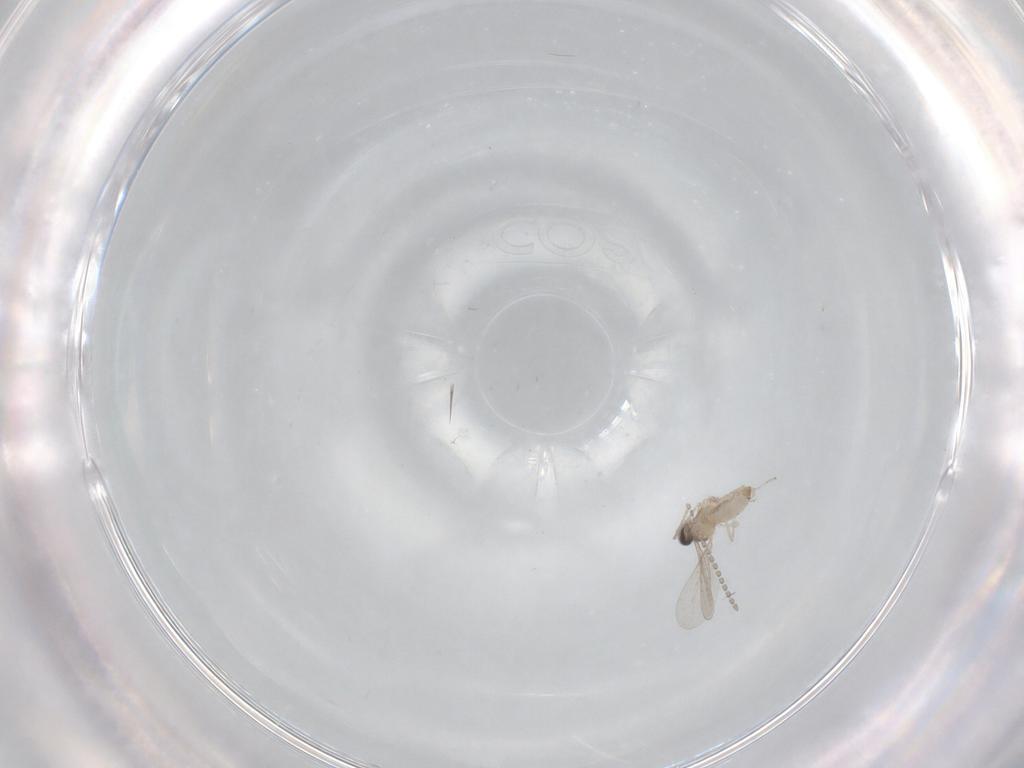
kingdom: Animalia
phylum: Arthropoda
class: Insecta
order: Diptera
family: Cecidomyiidae
